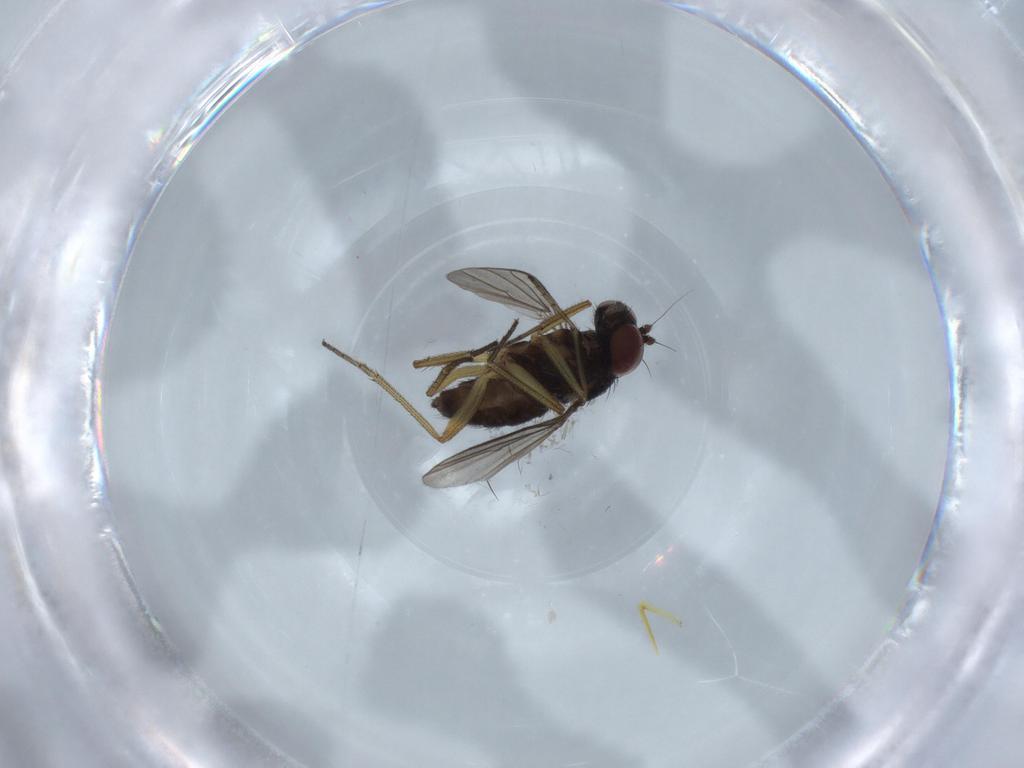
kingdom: Animalia
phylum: Arthropoda
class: Insecta
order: Diptera
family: Dolichopodidae
